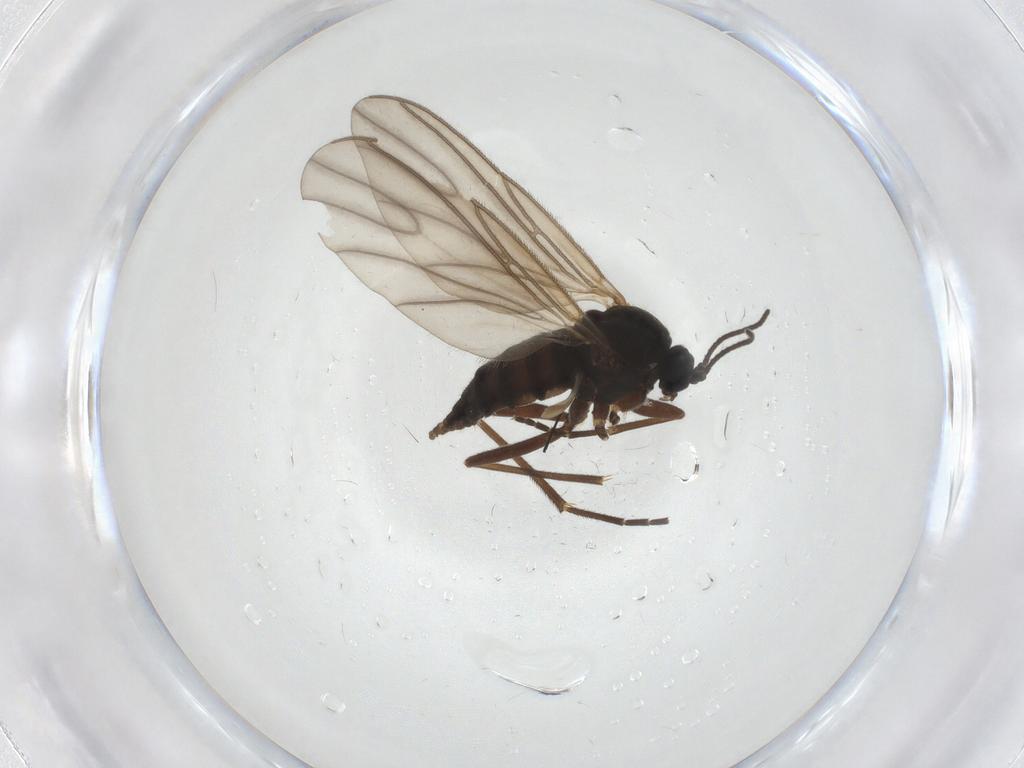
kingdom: Animalia
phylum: Arthropoda
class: Insecta
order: Diptera
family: Sciaridae
